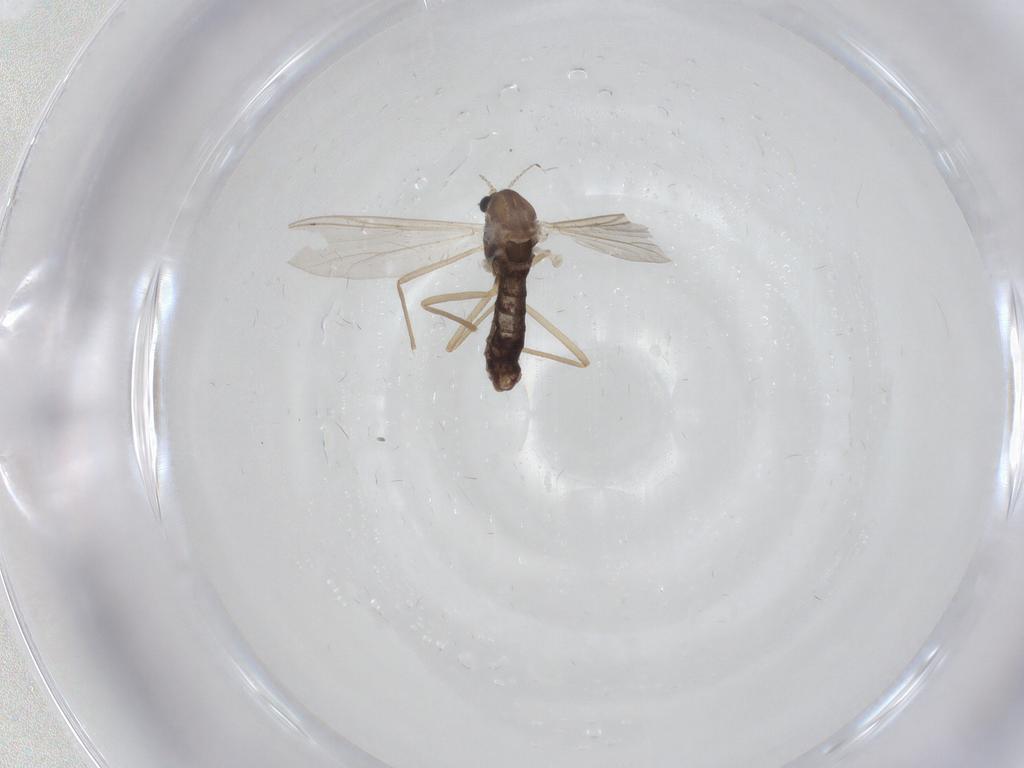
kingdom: Animalia
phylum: Arthropoda
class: Insecta
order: Diptera
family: Chironomidae
